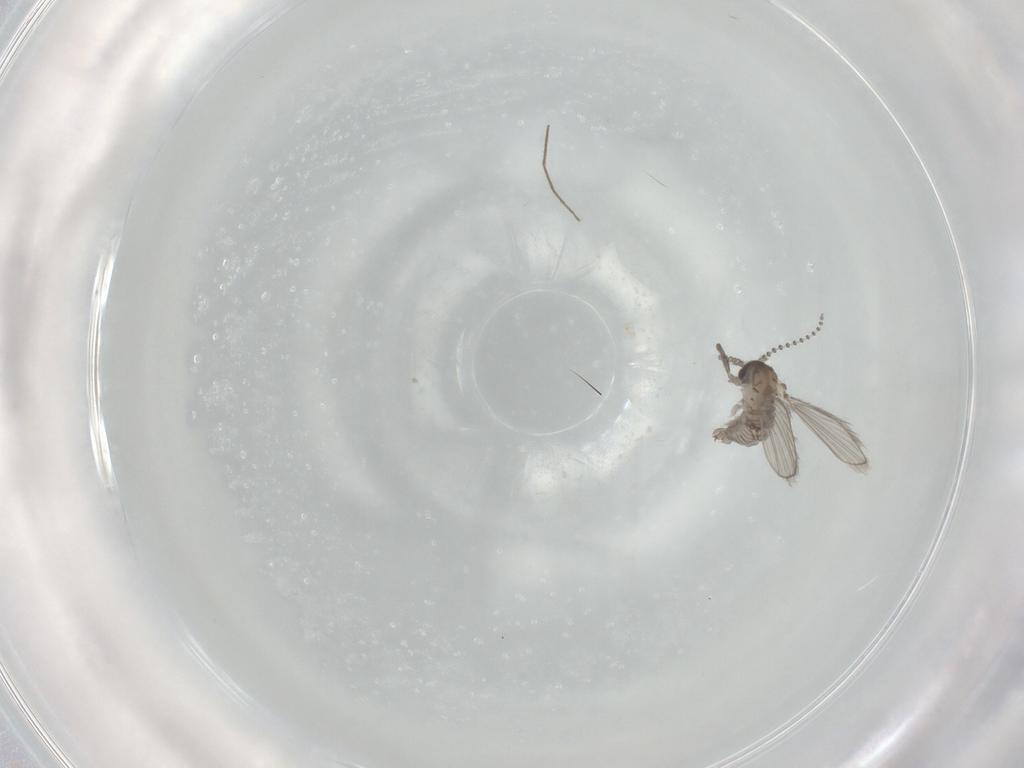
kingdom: Animalia
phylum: Arthropoda
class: Insecta
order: Diptera
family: Psychodidae
